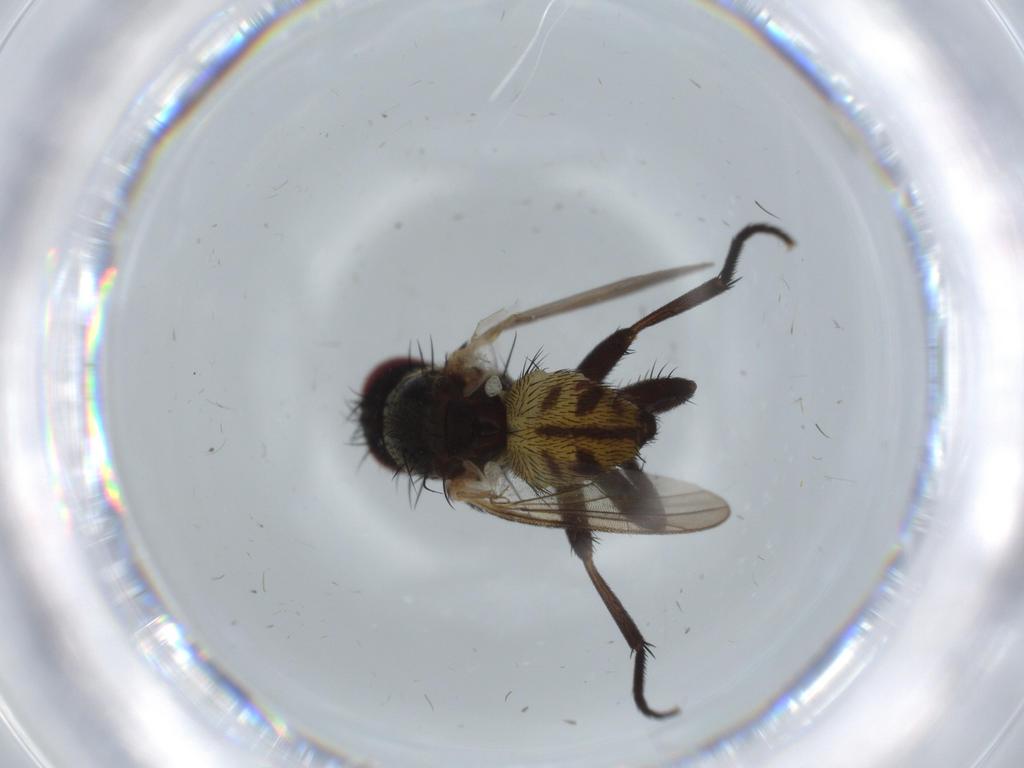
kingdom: Animalia
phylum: Arthropoda
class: Insecta
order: Diptera
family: Anthomyiidae
